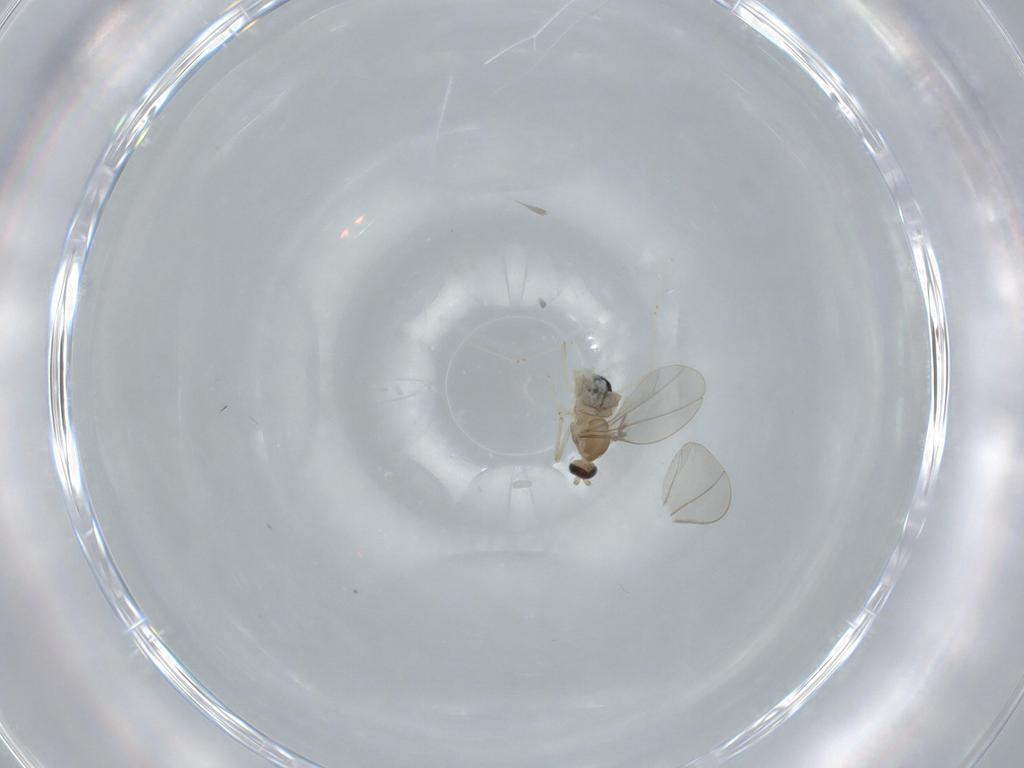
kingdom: Animalia
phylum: Arthropoda
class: Insecta
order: Diptera
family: Cecidomyiidae
